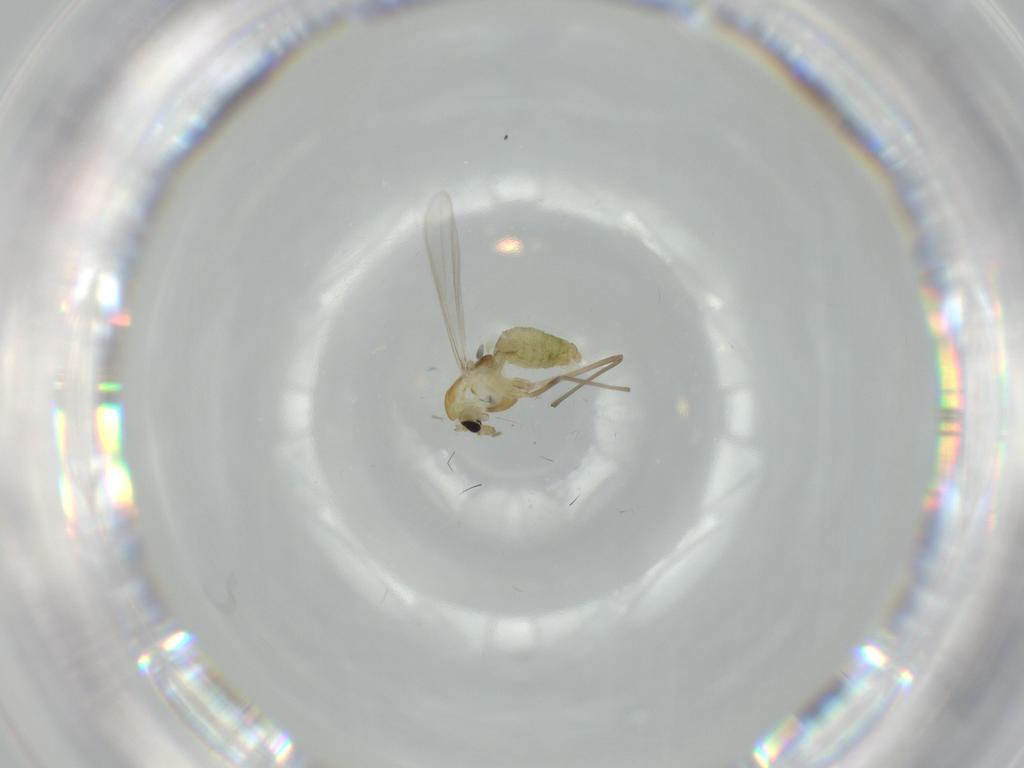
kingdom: Animalia
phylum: Arthropoda
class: Insecta
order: Diptera
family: Chironomidae
